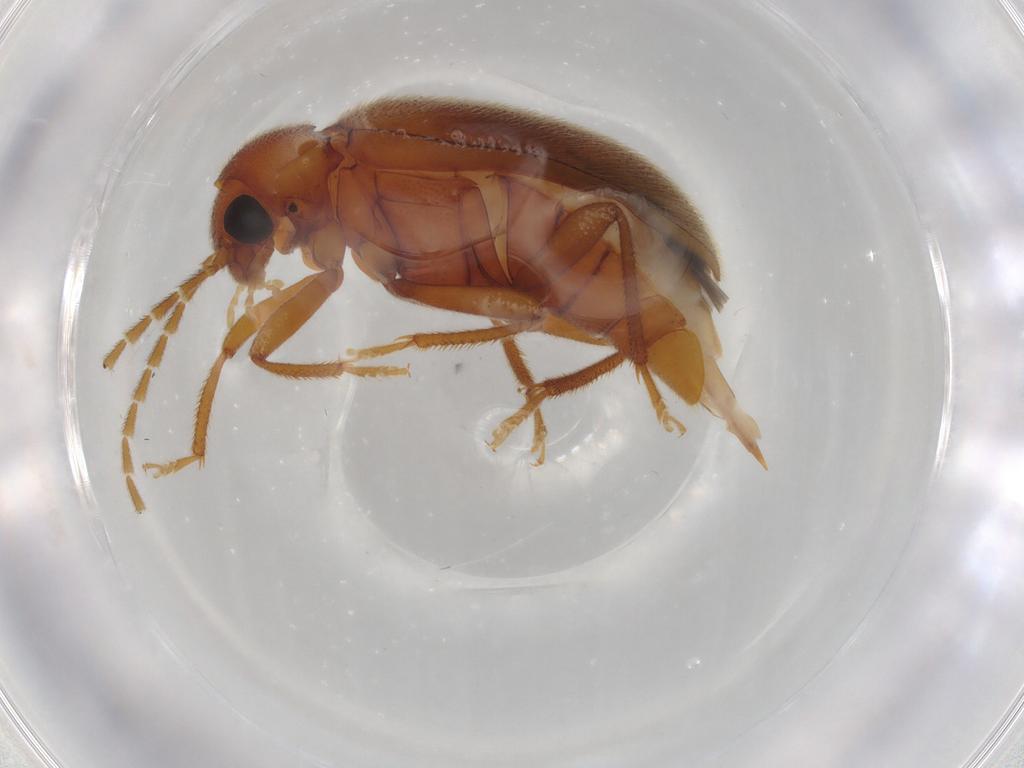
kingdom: Animalia
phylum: Arthropoda
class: Insecta
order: Coleoptera
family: Ptilodactylidae
